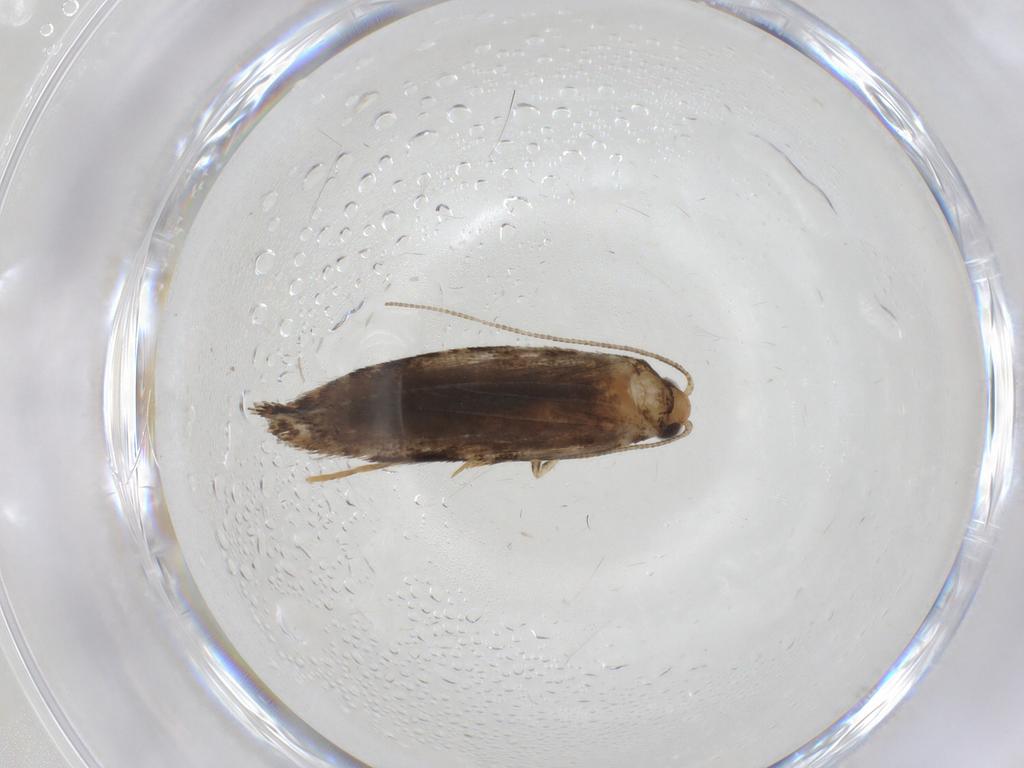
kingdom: Animalia
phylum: Arthropoda
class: Insecta
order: Lepidoptera
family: Tineidae
